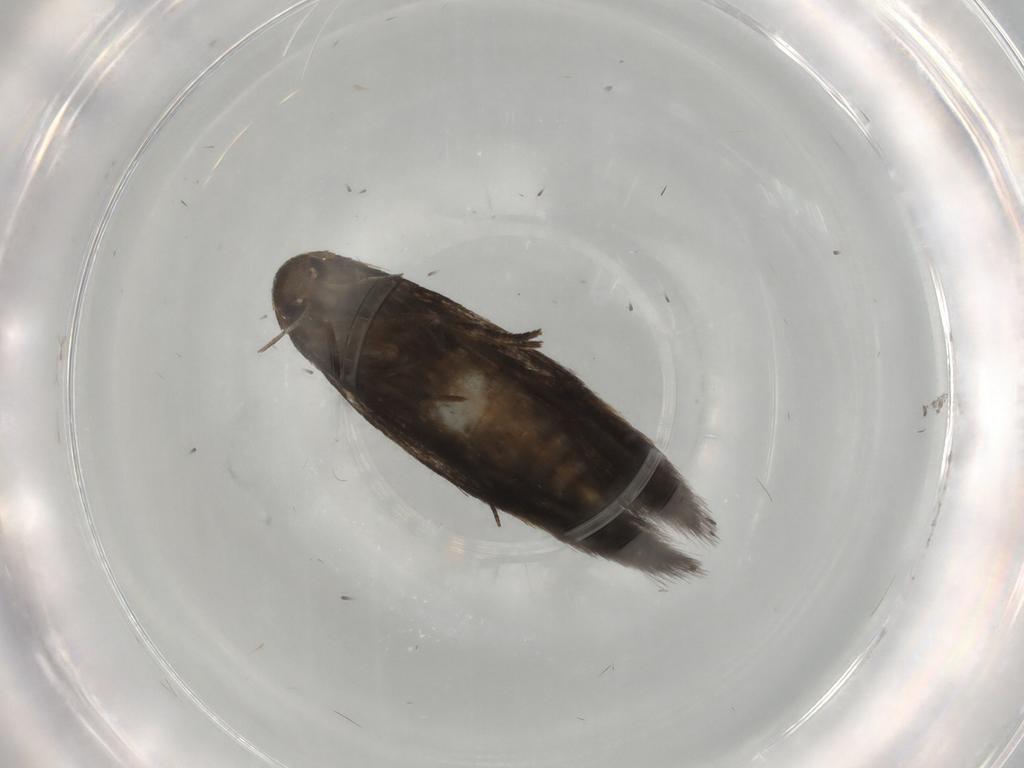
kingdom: Animalia
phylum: Arthropoda
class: Insecta
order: Lepidoptera
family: Elachistidae
